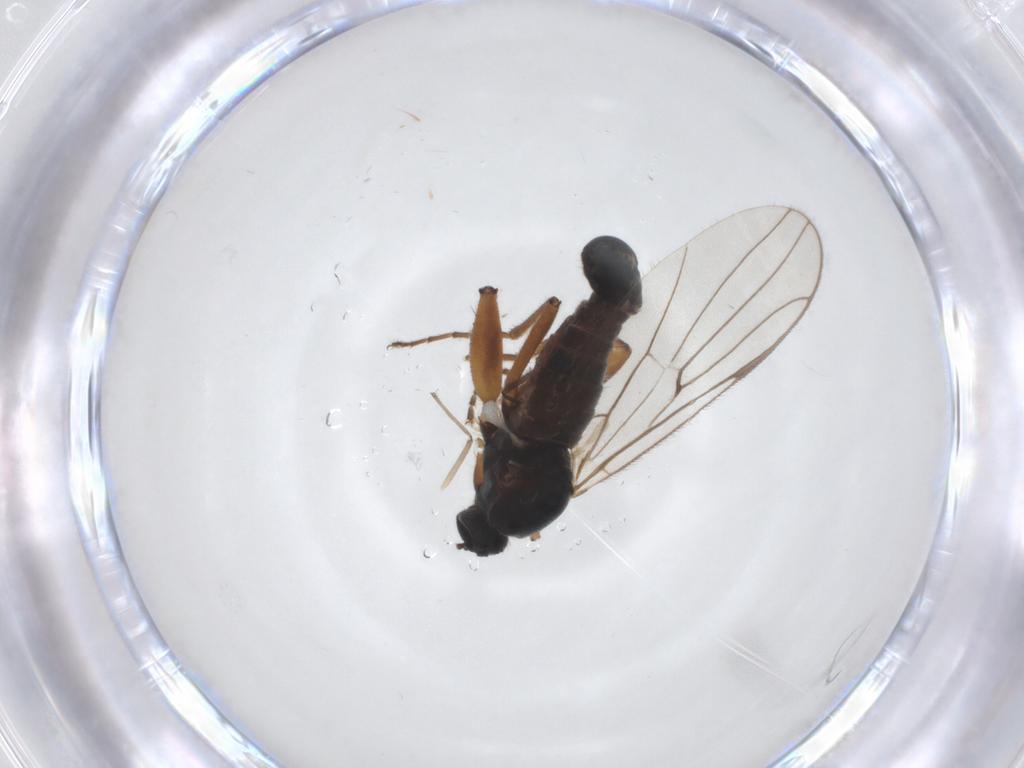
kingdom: Animalia
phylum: Arthropoda
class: Insecta
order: Diptera
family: Hybotidae
